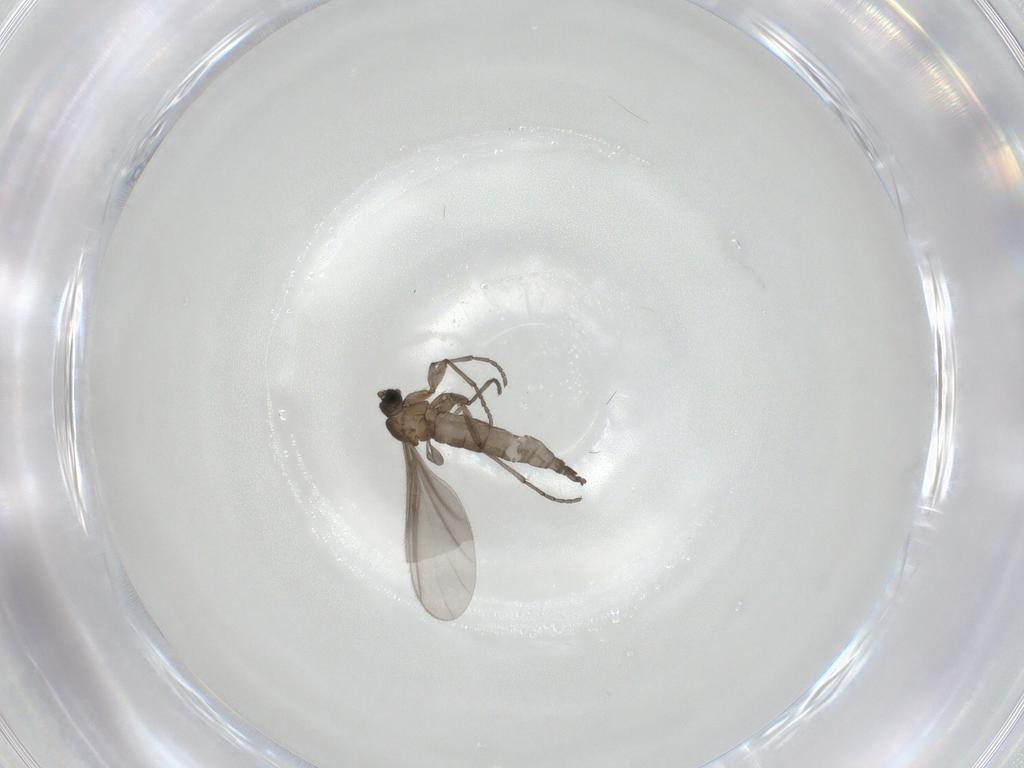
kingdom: Animalia
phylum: Arthropoda
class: Insecta
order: Diptera
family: Sciaridae
